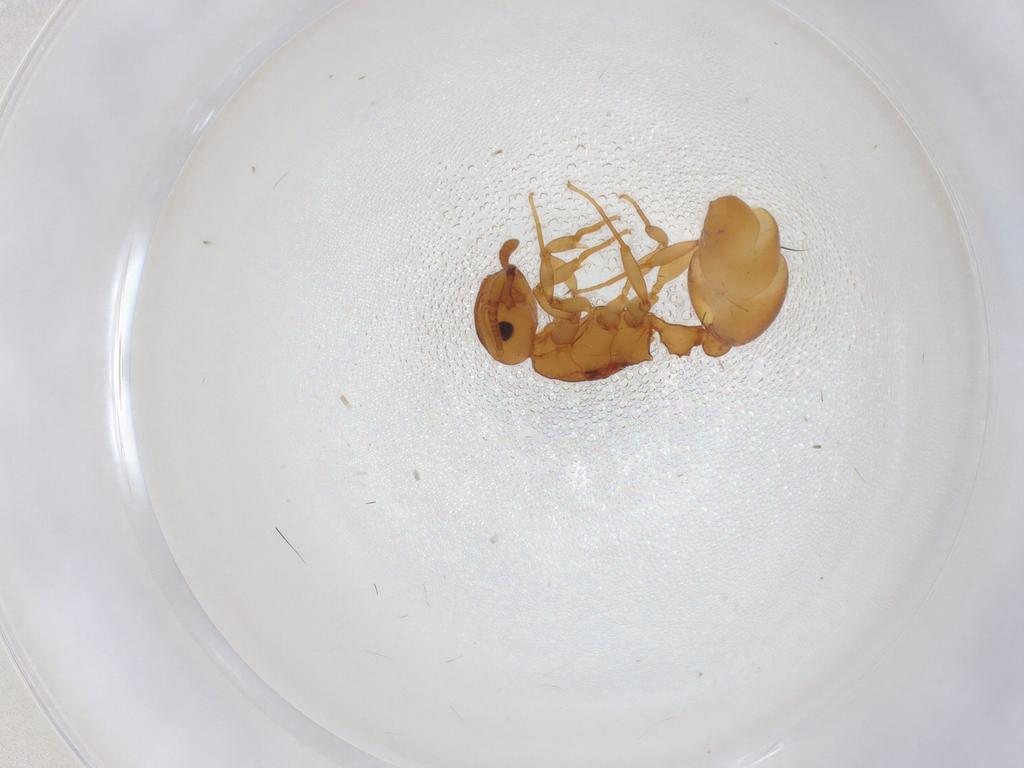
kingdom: Animalia
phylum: Arthropoda
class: Insecta
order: Hymenoptera
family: Formicidae
